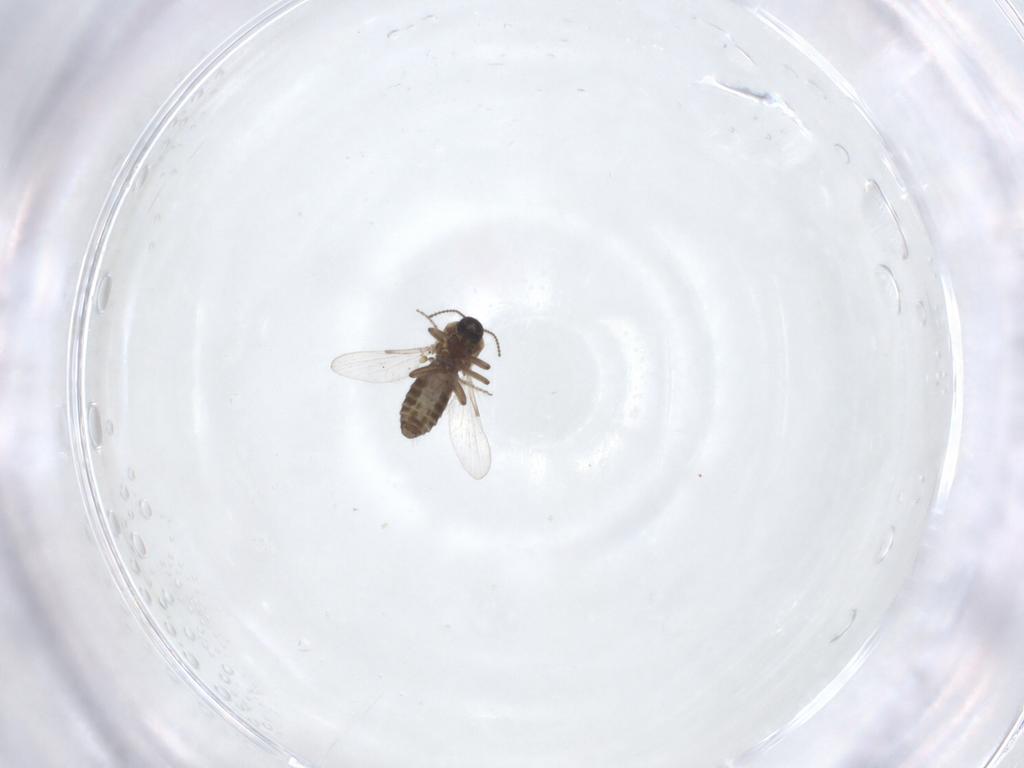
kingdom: Animalia
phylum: Arthropoda
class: Insecta
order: Diptera
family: Ceratopogonidae
